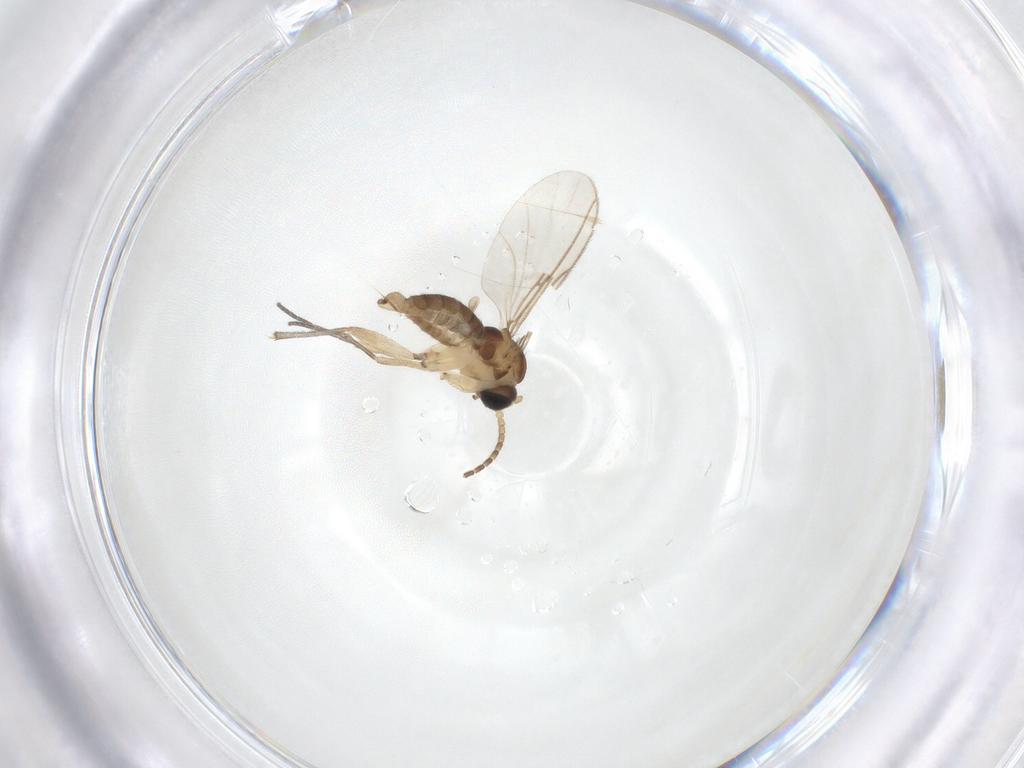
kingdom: Animalia
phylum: Arthropoda
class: Insecta
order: Diptera
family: Sciaridae
